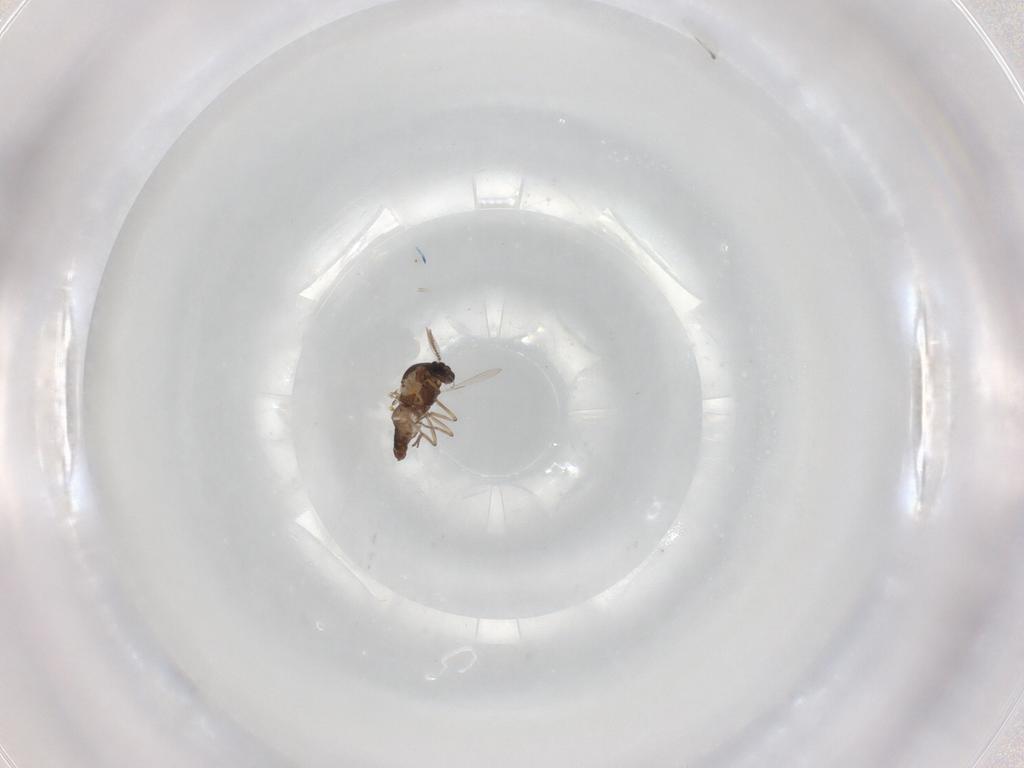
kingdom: Animalia
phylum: Arthropoda
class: Insecta
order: Diptera
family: Ceratopogonidae
